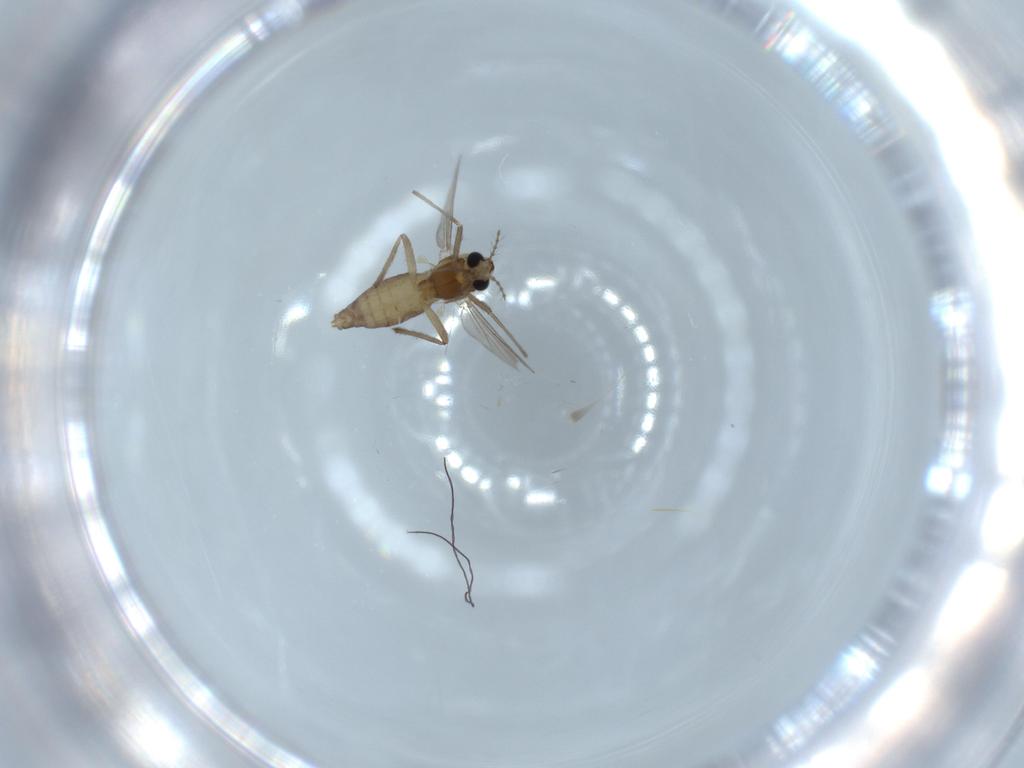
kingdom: Animalia
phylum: Arthropoda
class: Insecta
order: Diptera
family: Chironomidae
